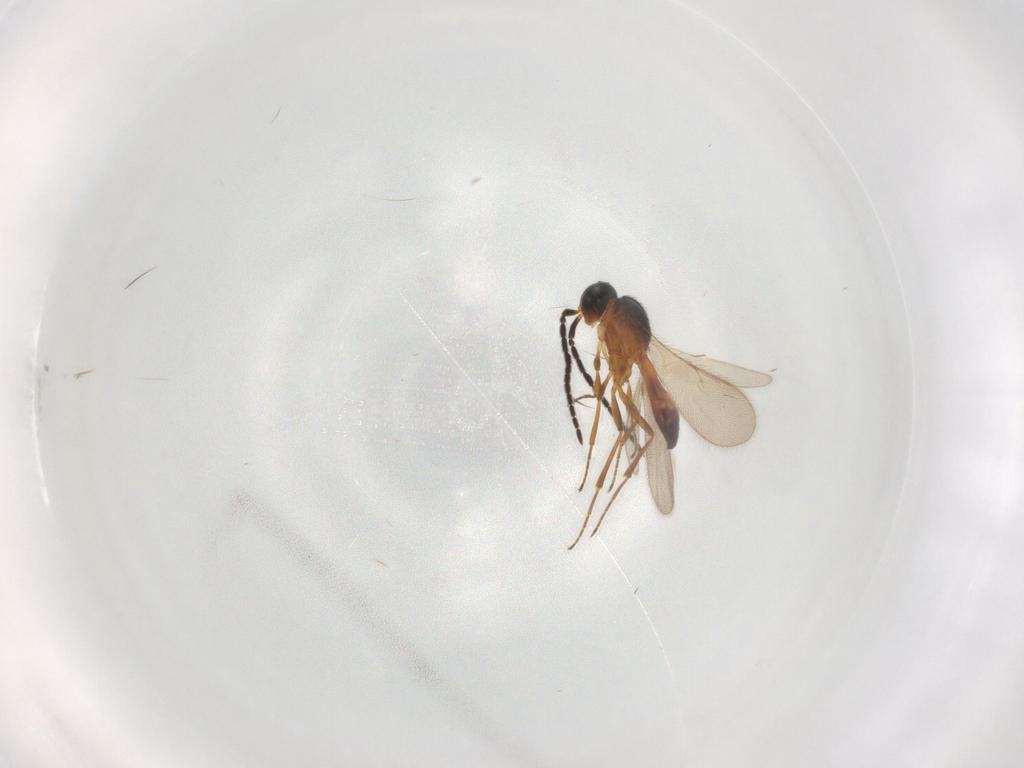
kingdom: Animalia
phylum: Arthropoda
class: Insecta
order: Hymenoptera
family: Scelionidae
